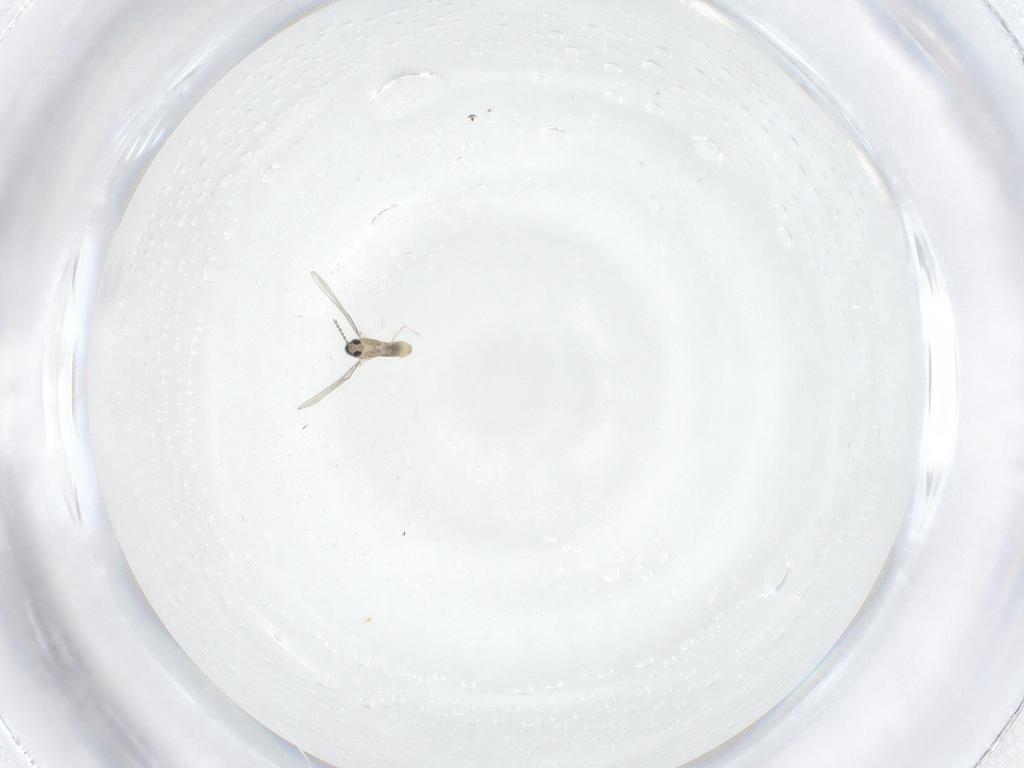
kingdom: Animalia
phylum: Arthropoda
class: Insecta
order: Diptera
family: Cecidomyiidae
